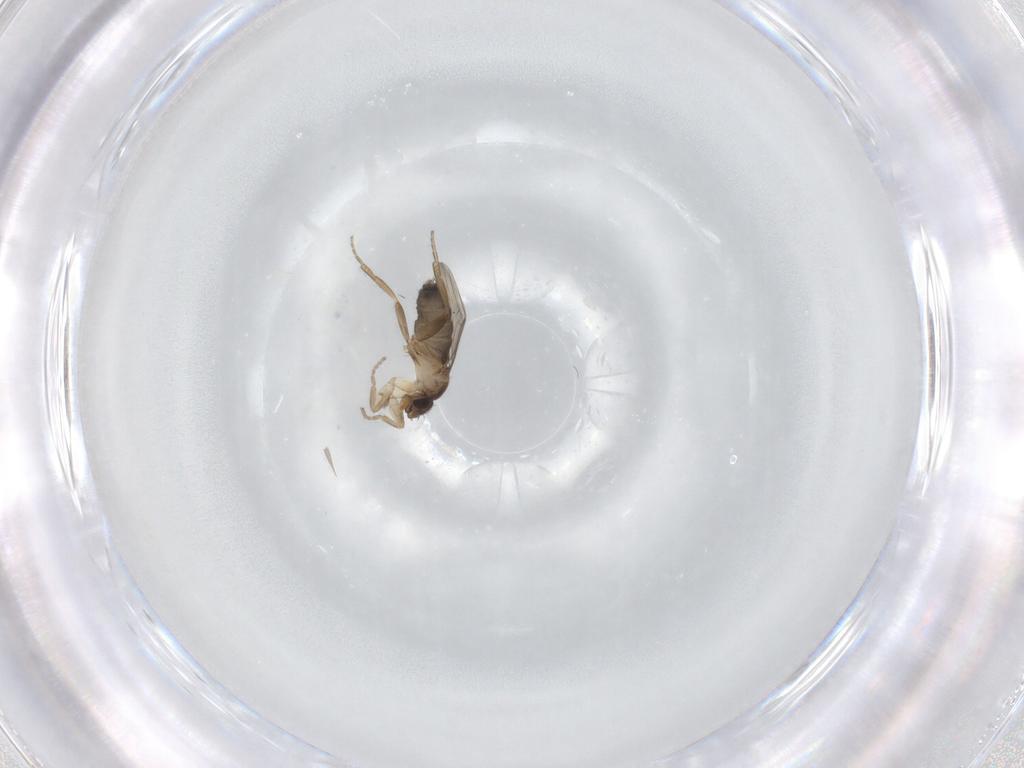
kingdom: Animalia
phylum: Arthropoda
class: Insecta
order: Diptera
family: Phoridae
